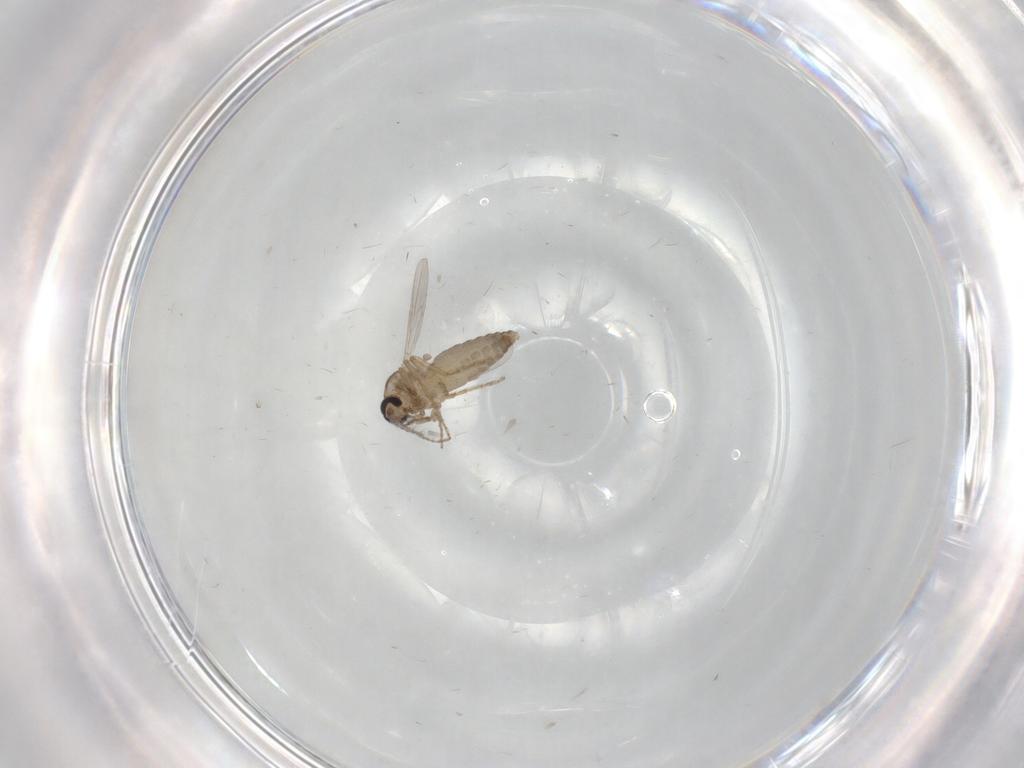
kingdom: Animalia
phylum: Arthropoda
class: Insecta
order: Diptera
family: Ceratopogonidae
